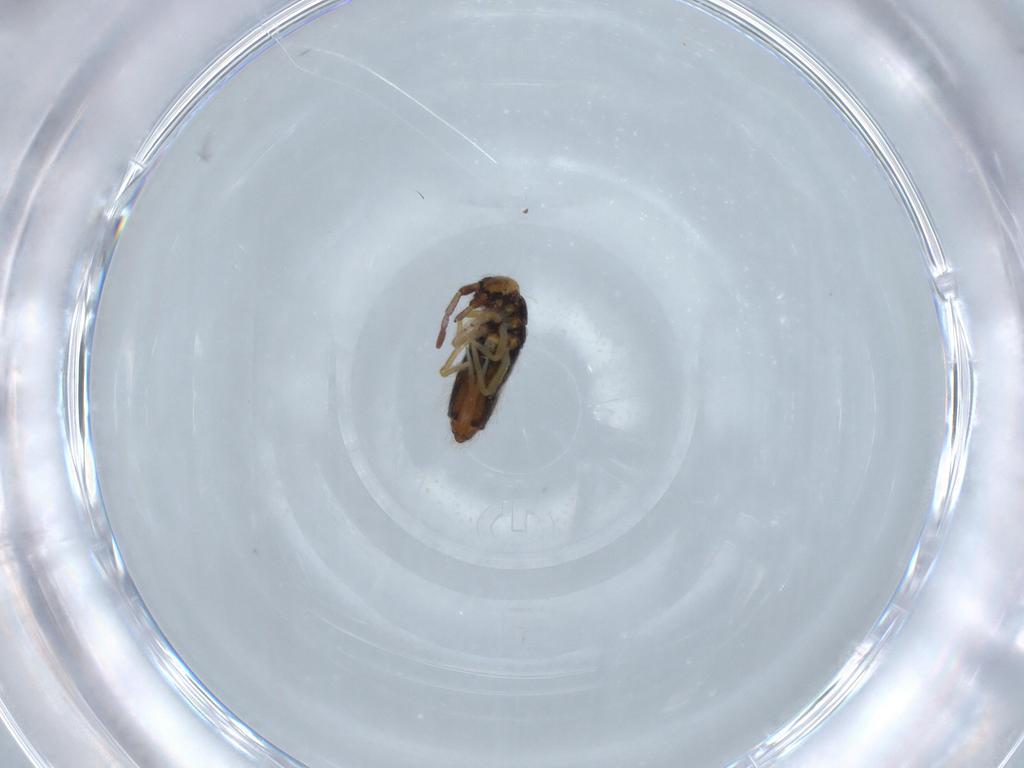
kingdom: Animalia
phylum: Arthropoda
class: Collembola
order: Entomobryomorpha
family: Entomobryidae
